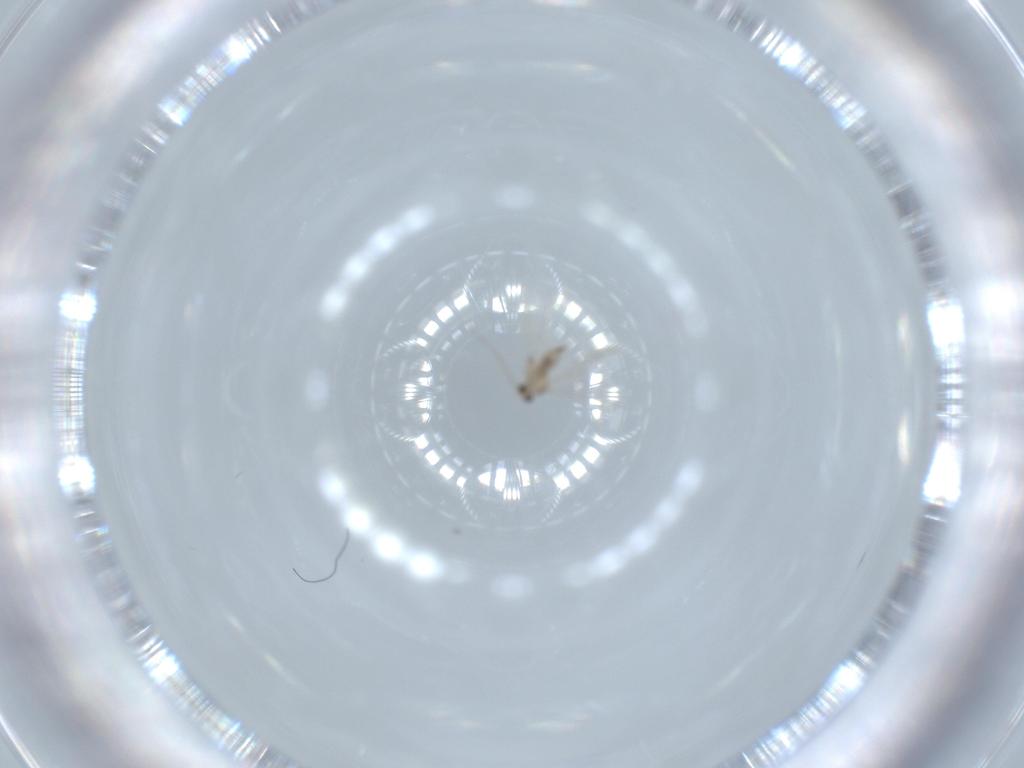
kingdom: Animalia
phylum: Arthropoda
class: Insecta
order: Diptera
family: Cecidomyiidae
